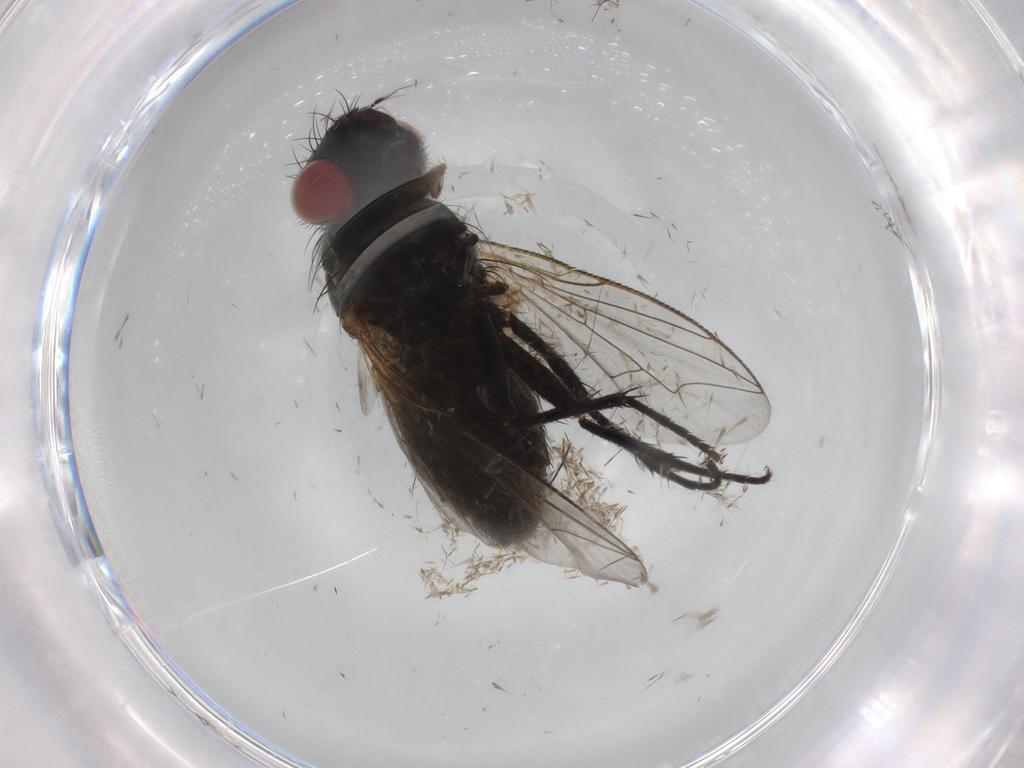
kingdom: Animalia
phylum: Arthropoda
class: Insecta
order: Diptera
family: Sarcophagidae
